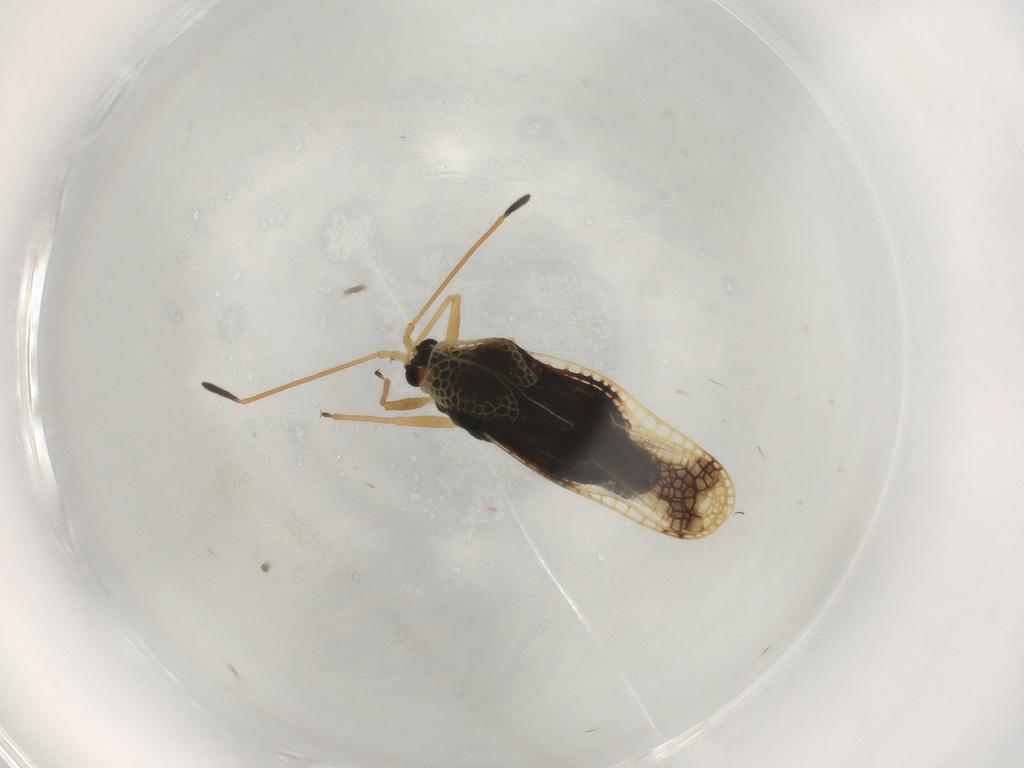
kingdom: Animalia
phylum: Arthropoda
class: Insecta
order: Hemiptera
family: Tingidae
